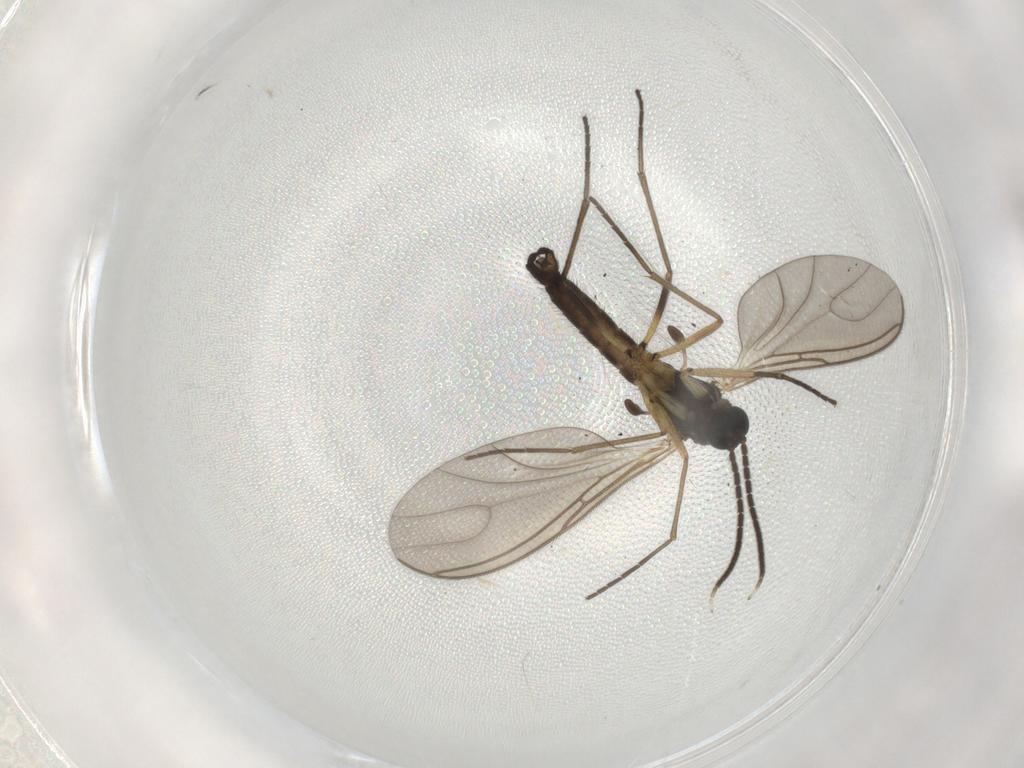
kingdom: Animalia
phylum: Arthropoda
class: Insecta
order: Diptera
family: Sciaridae
